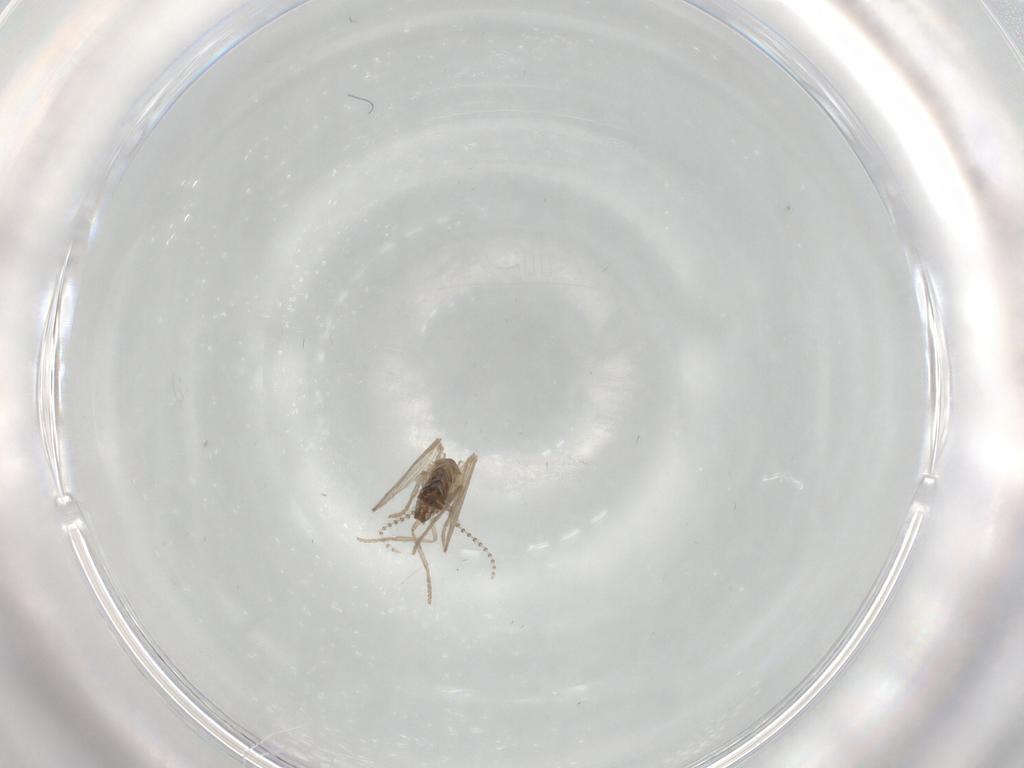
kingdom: Animalia
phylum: Arthropoda
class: Insecta
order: Diptera
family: Psychodidae
